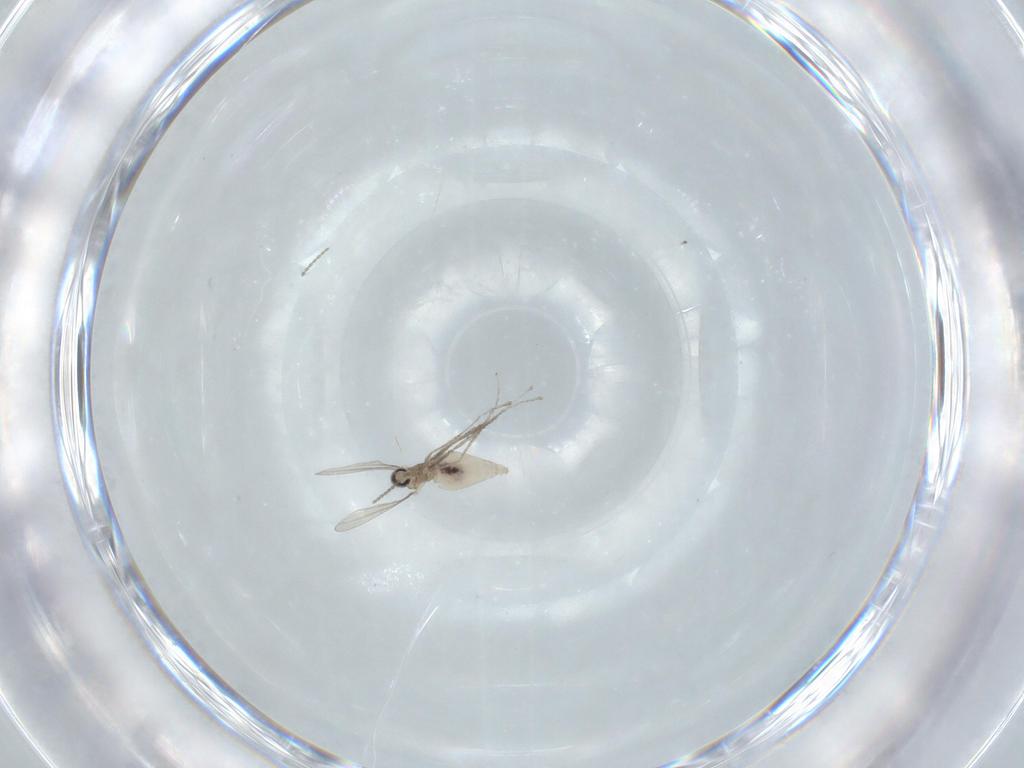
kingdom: Animalia
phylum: Arthropoda
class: Insecta
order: Diptera
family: Cecidomyiidae
